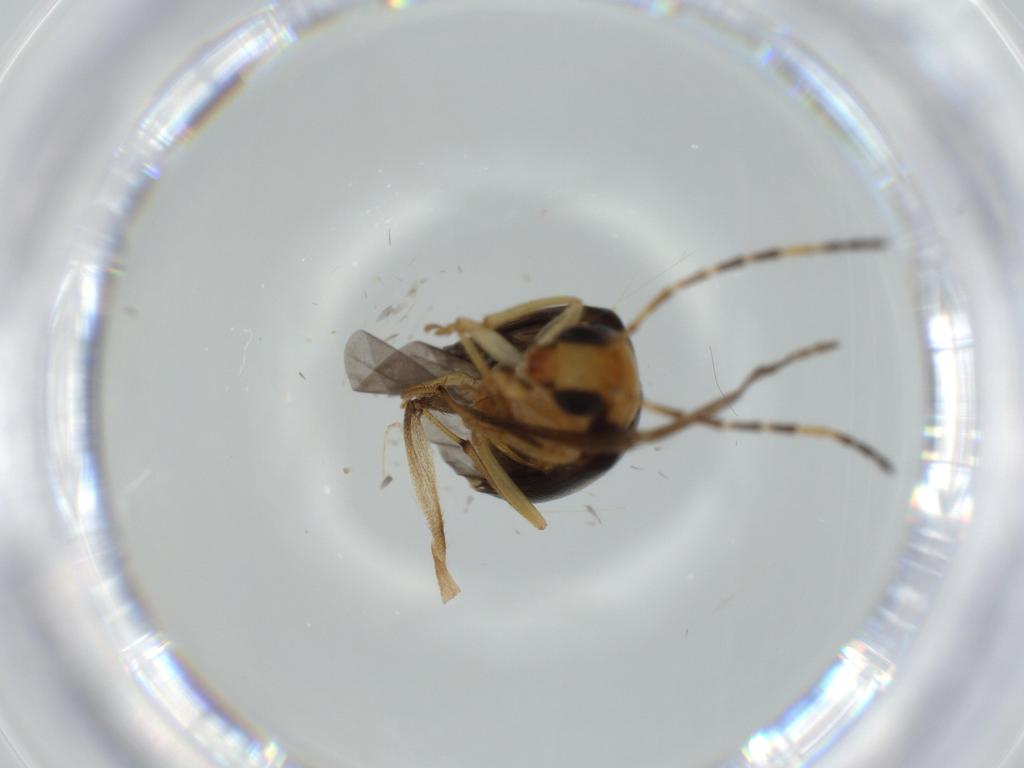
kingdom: Animalia
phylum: Arthropoda
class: Insecta
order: Coleoptera
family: Chrysomelidae
